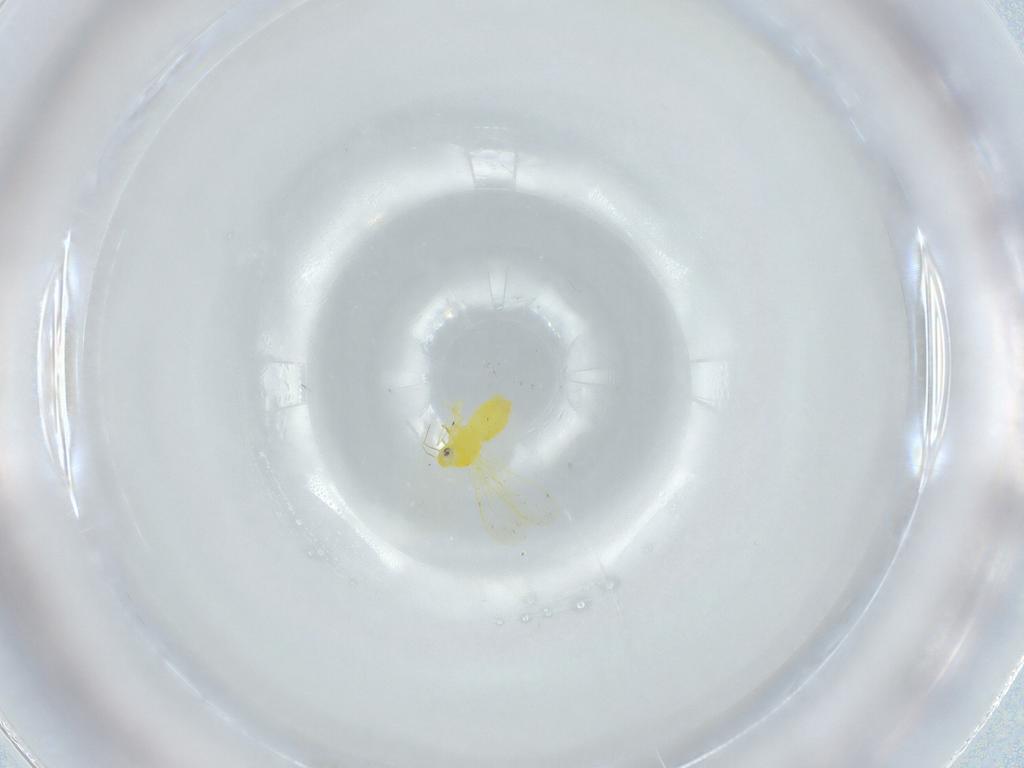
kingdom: Animalia
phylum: Arthropoda
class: Insecta
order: Hemiptera
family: Aleyrodidae
